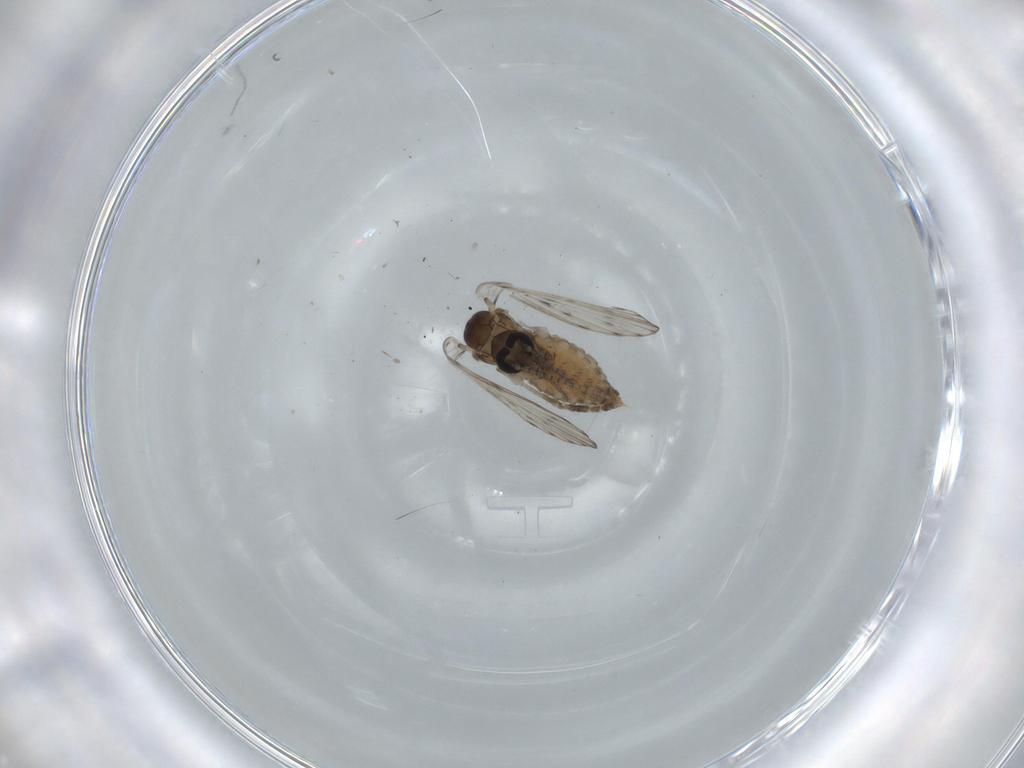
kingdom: Animalia
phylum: Arthropoda
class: Insecta
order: Diptera
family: Psychodidae
